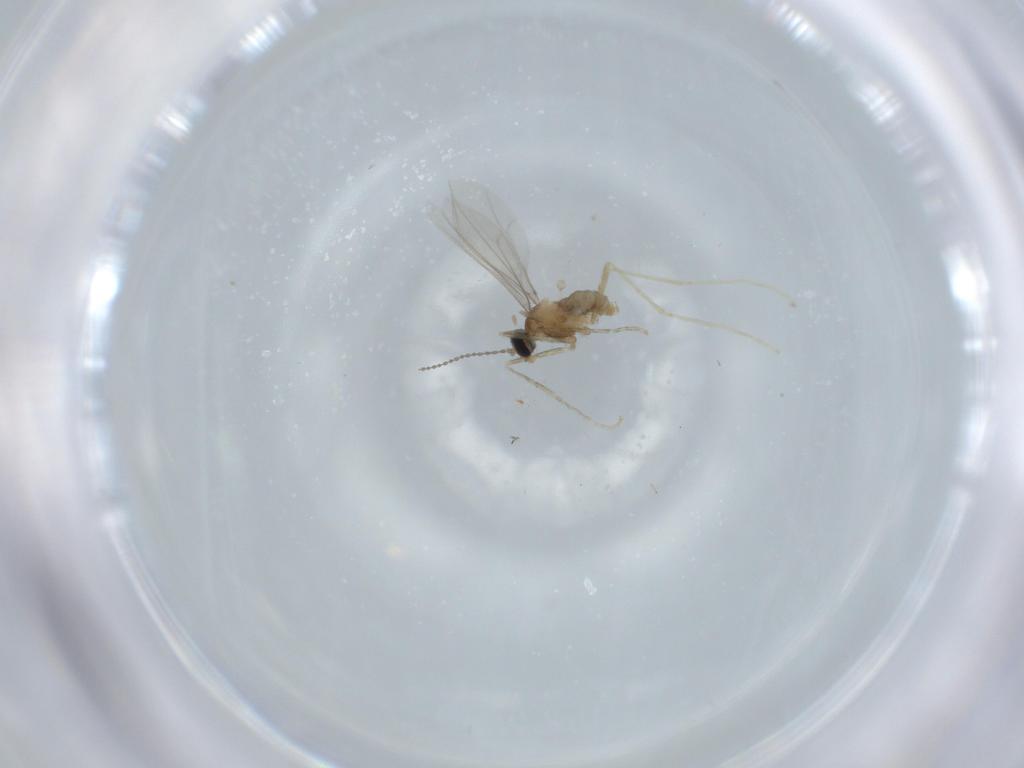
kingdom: Animalia
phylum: Arthropoda
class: Insecta
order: Diptera
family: Cecidomyiidae
